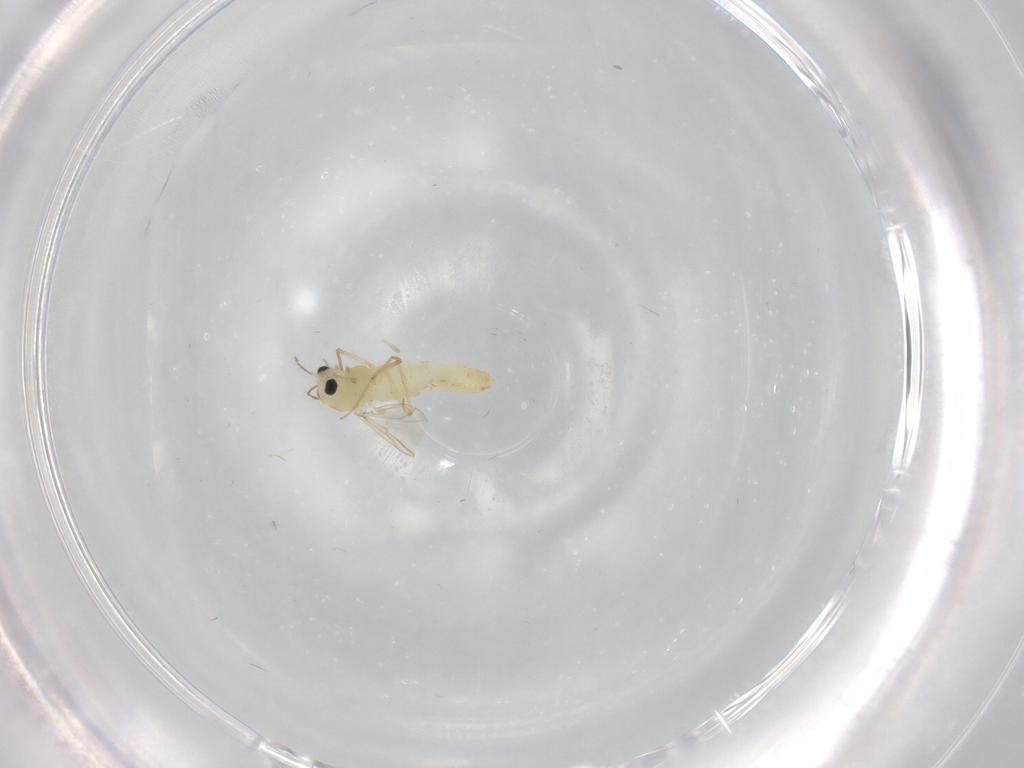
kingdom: Animalia
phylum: Arthropoda
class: Insecta
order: Diptera
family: Chironomidae
